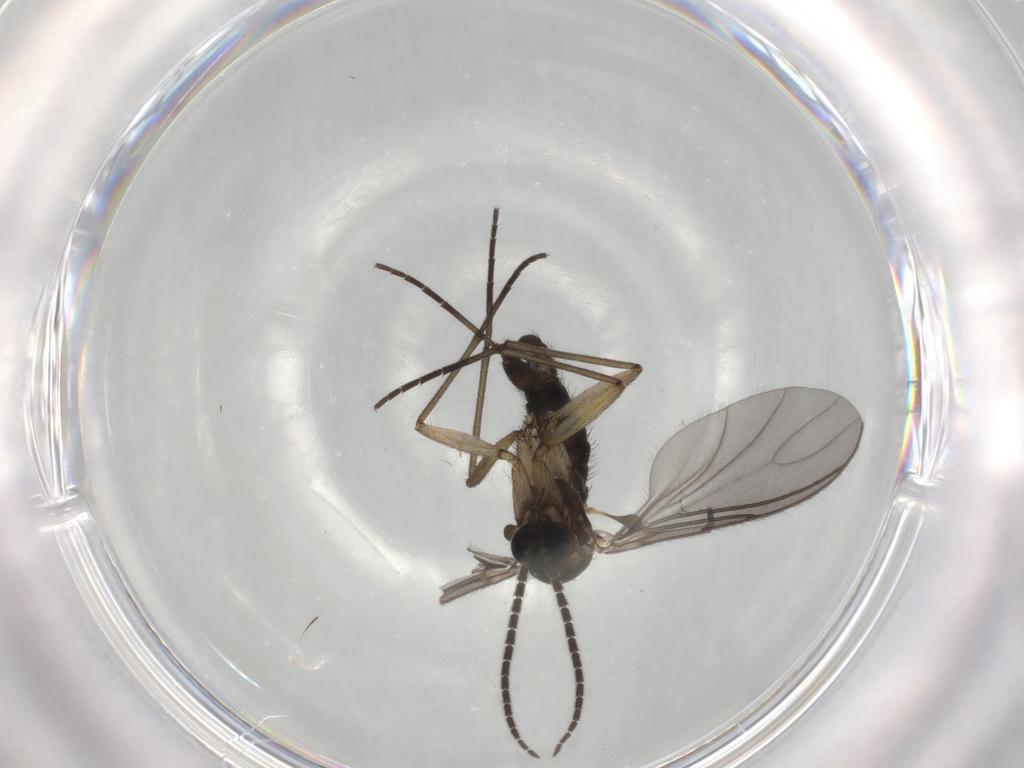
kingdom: Animalia
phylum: Arthropoda
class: Insecta
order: Diptera
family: Sciaridae
